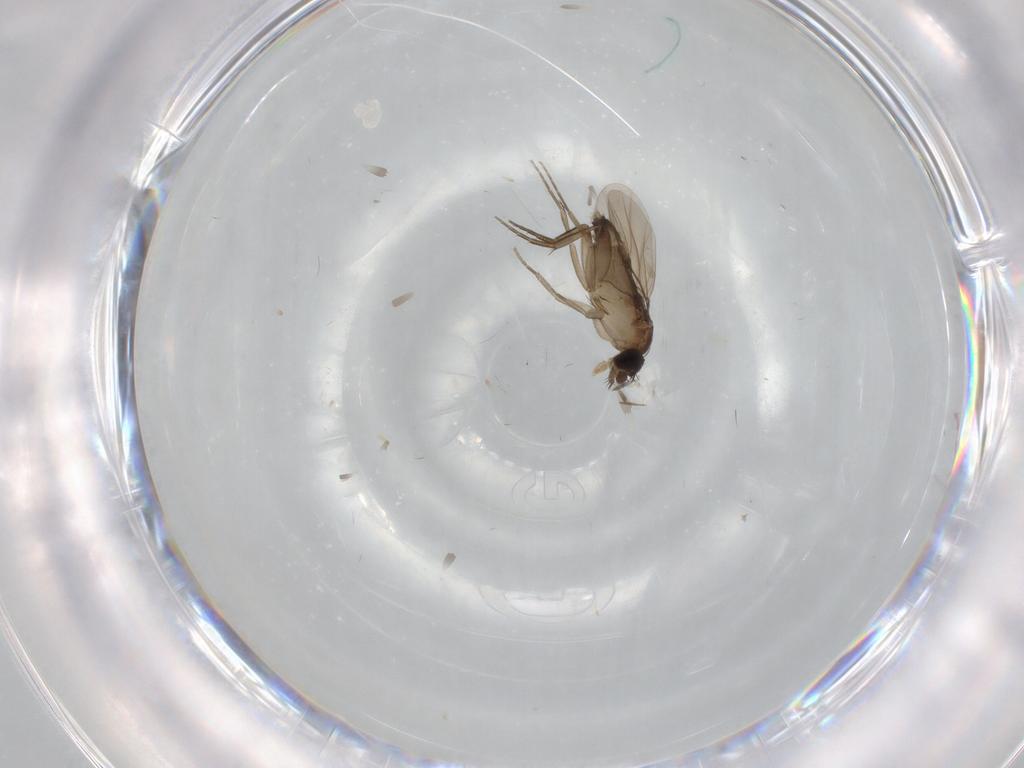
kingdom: Animalia
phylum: Arthropoda
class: Insecta
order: Diptera
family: Phoridae
